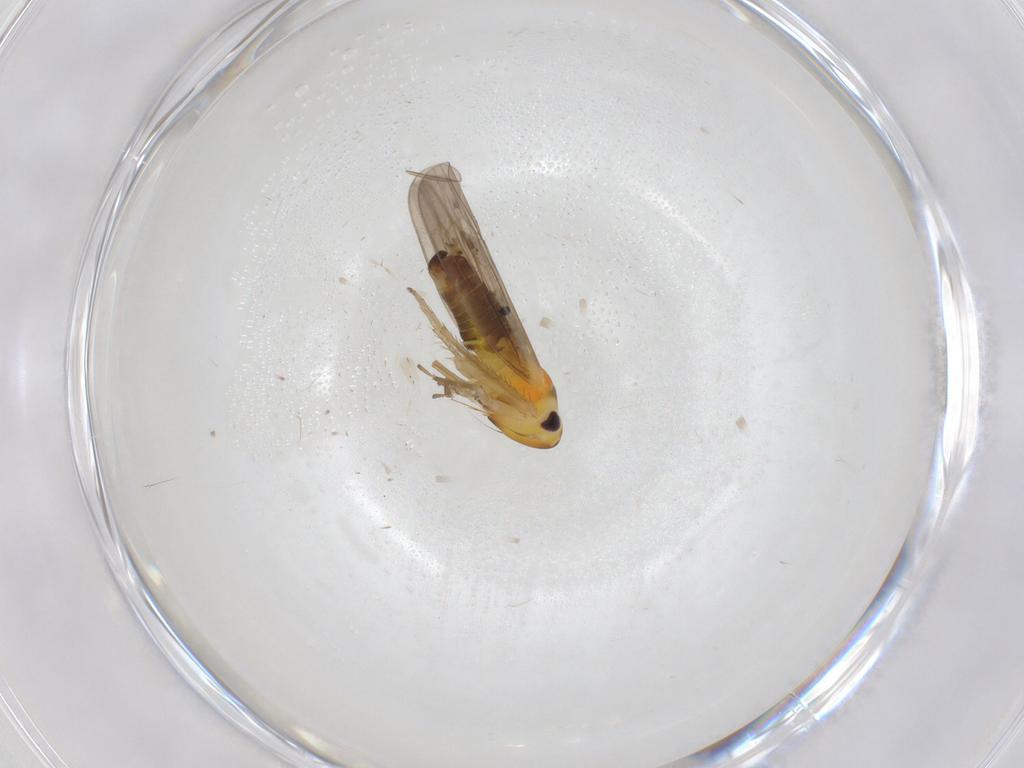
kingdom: Animalia
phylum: Arthropoda
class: Insecta
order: Hemiptera
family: Cicadellidae
